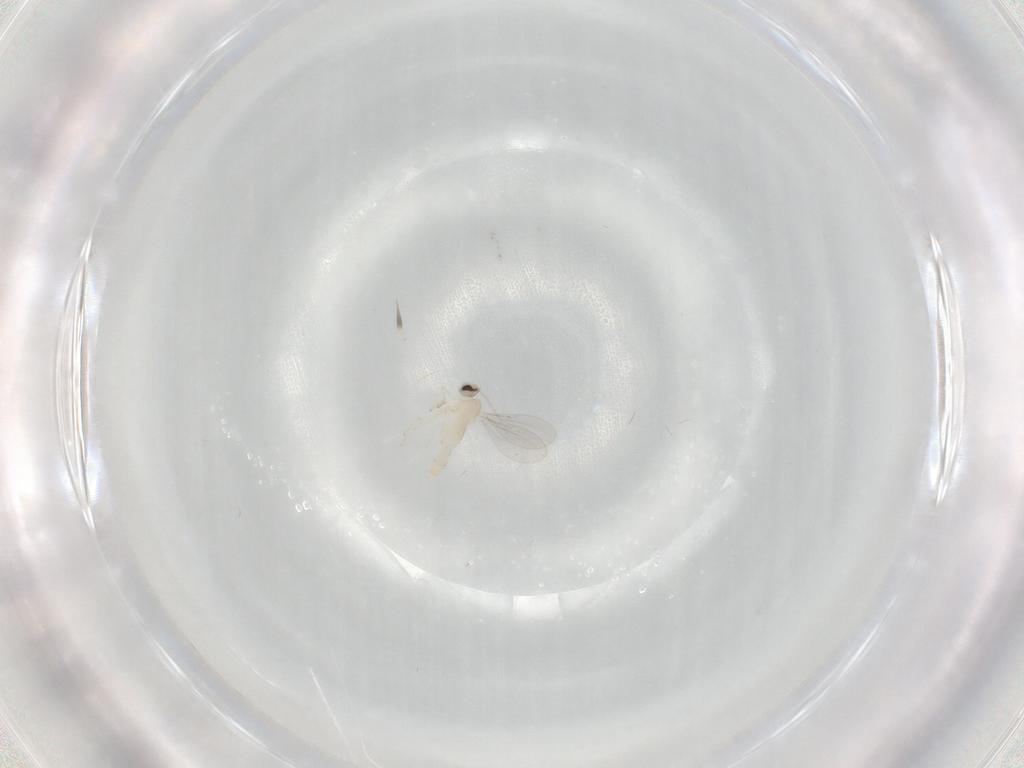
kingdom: Animalia
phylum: Arthropoda
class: Insecta
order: Diptera
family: Cecidomyiidae
